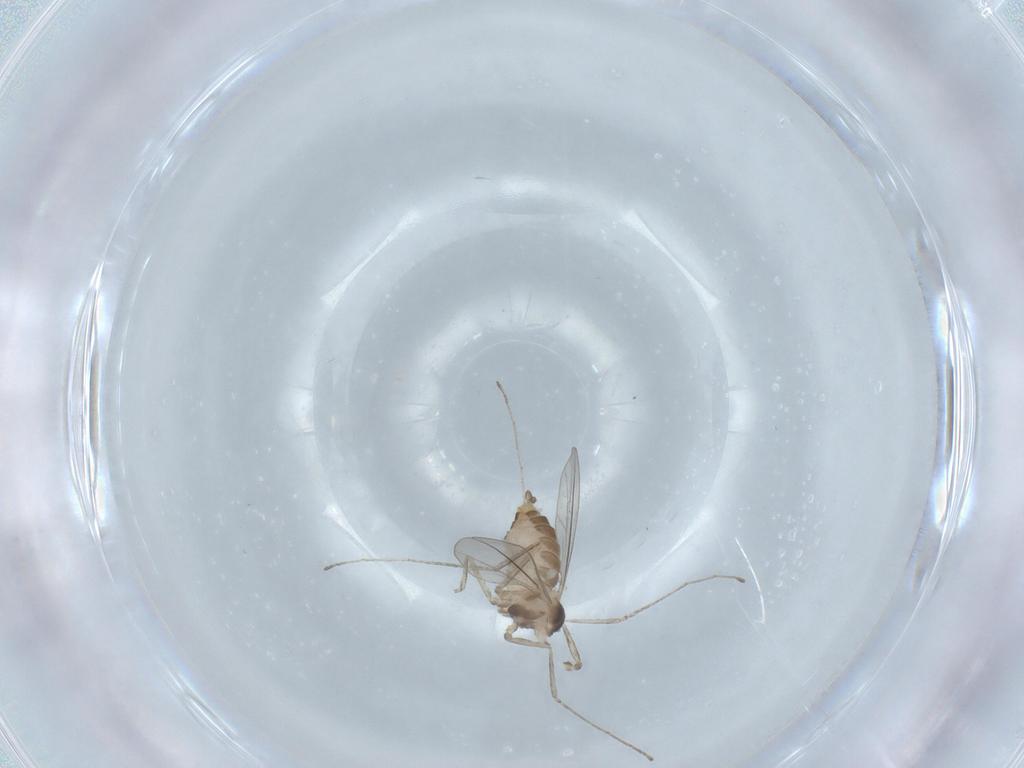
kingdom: Animalia
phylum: Arthropoda
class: Insecta
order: Diptera
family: Cecidomyiidae
